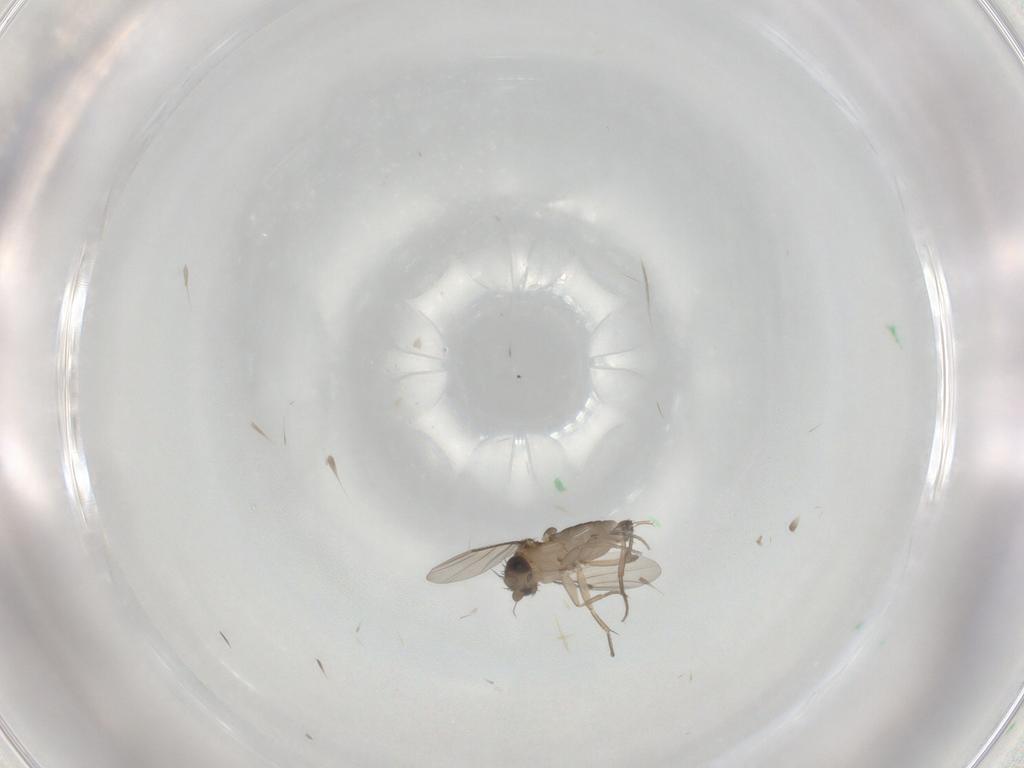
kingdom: Animalia
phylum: Arthropoda
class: Insecta
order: Diptera
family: Phoridae
